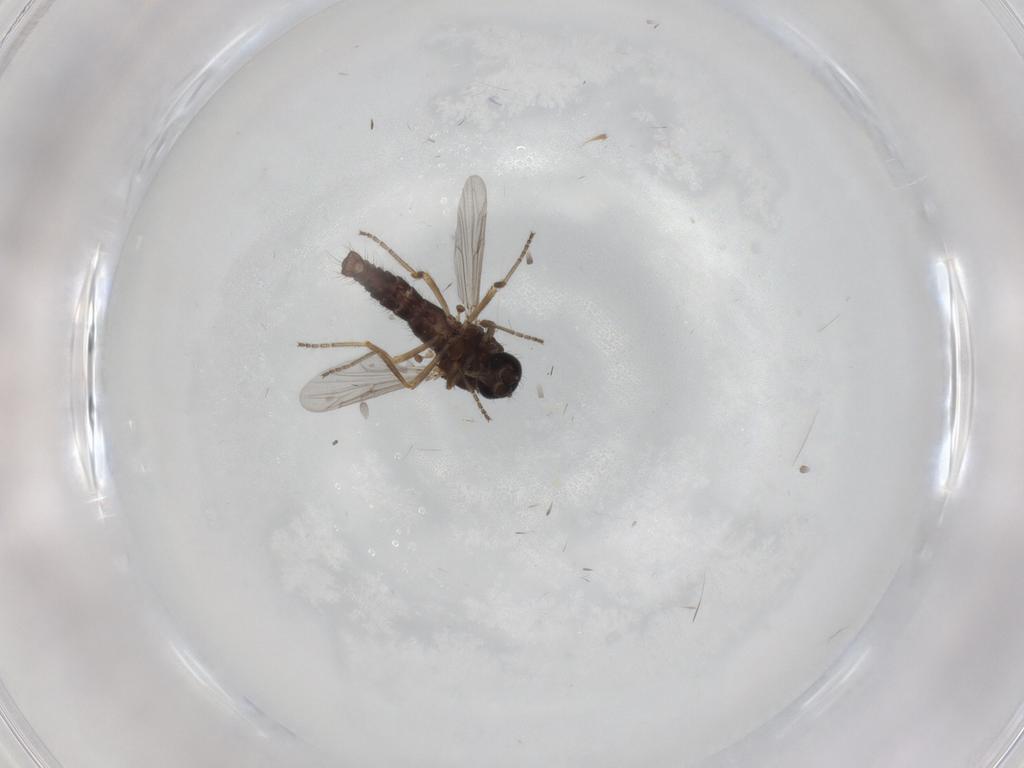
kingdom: Animalia
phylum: Arthropoda
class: Insecta
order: Diptera
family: Ceratopogonidae
